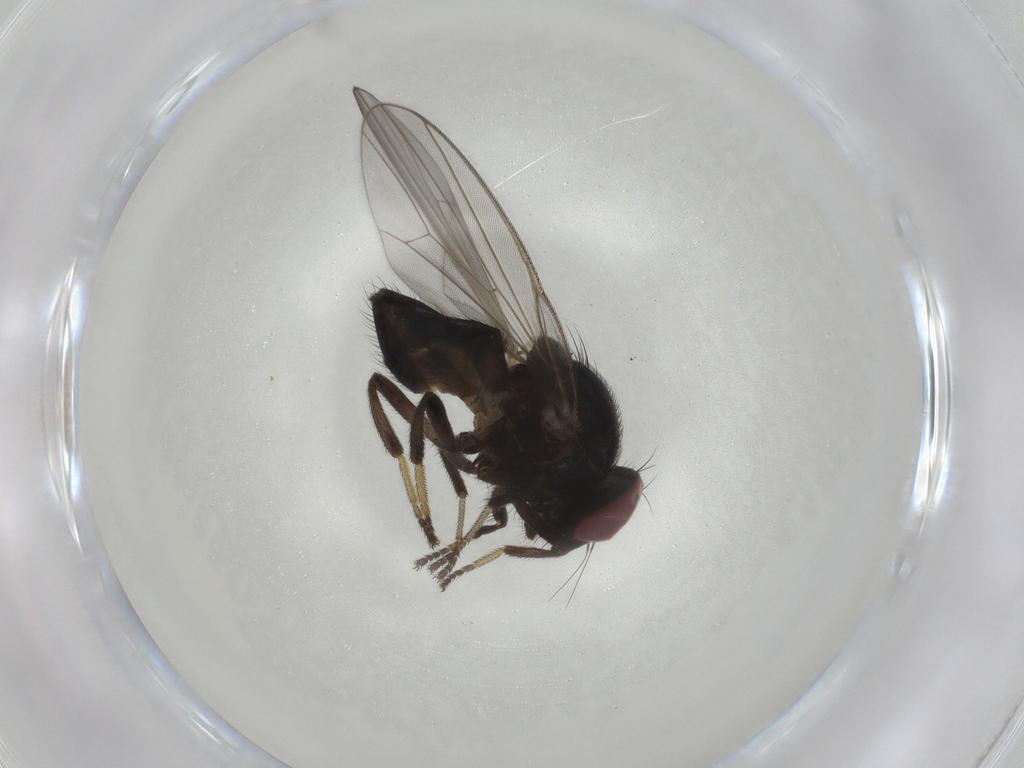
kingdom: Animalia
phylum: Arthropoda
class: Insecta
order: Diptera
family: Lonchaeidae
